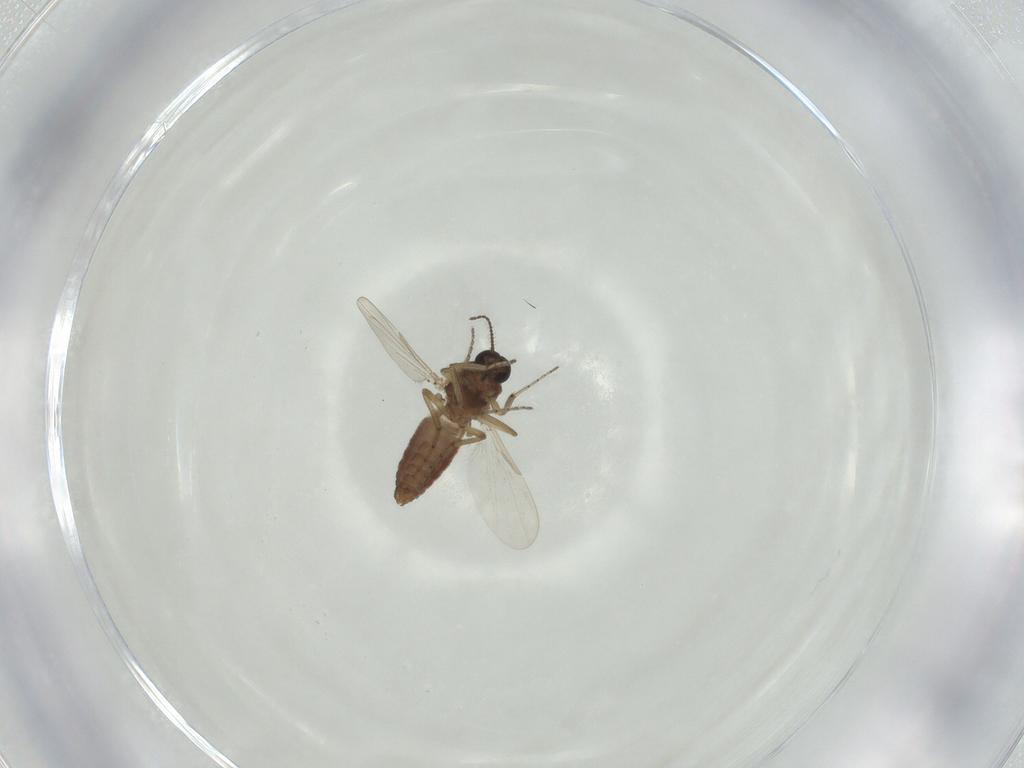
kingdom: Animalia
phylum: Arthropoda
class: Insecta
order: Diptera
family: Ceratopogonidae
